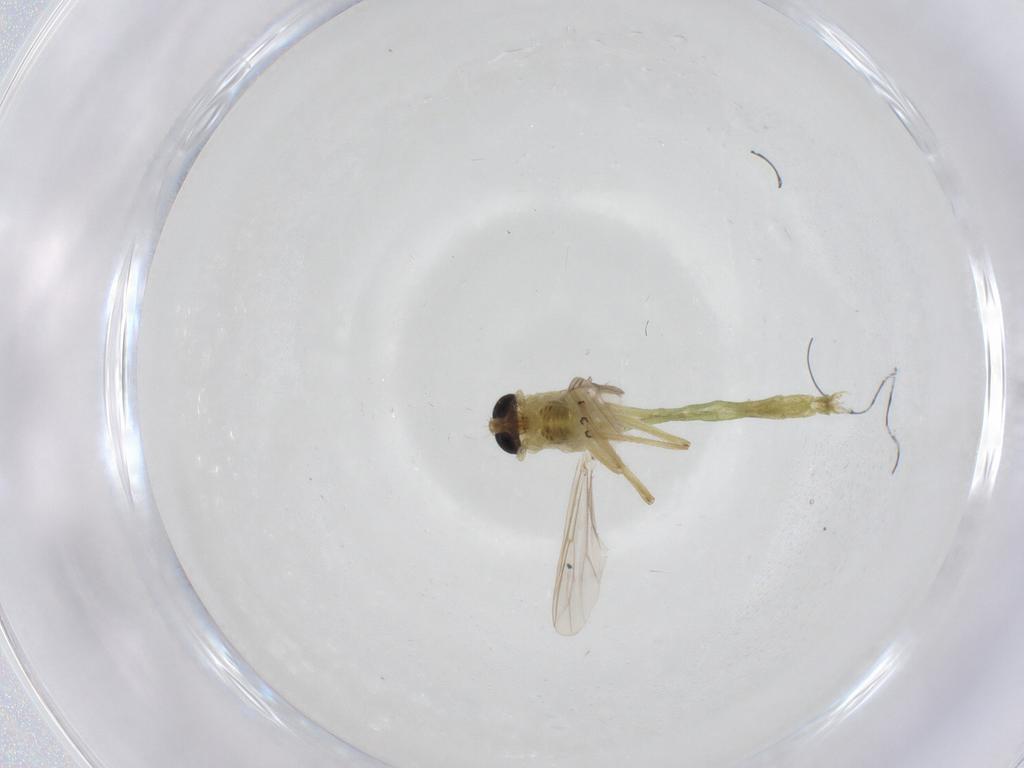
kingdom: Animalia
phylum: Arthropoda
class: Insecta
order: Diptera
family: Chironomidae
